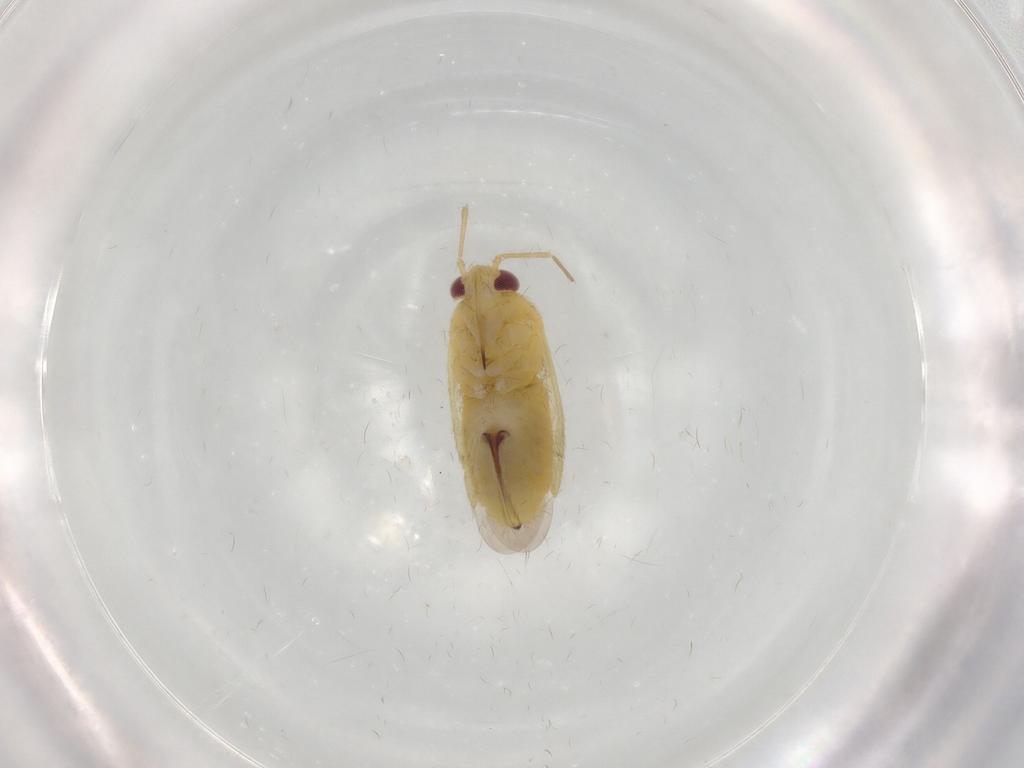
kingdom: Animalia
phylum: Arthropoda
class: Insecta
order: Hemiptera
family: Miridae
